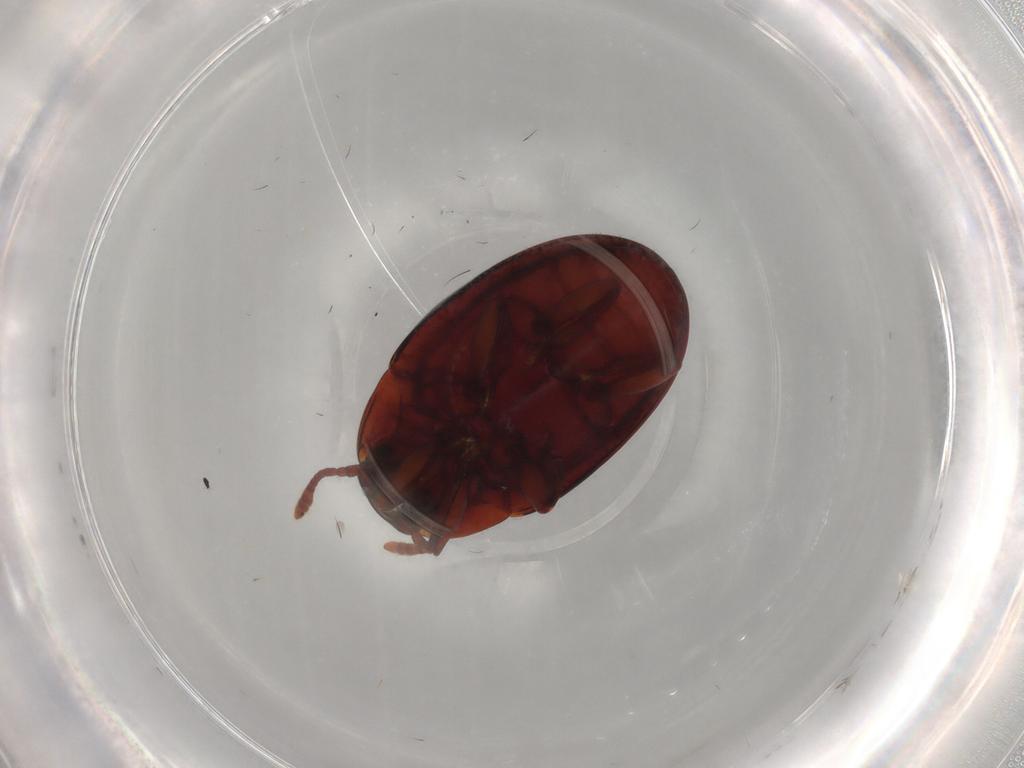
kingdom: Animalia
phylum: Arthropoda
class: Insecta
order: Coleoptera
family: Zopheridae
